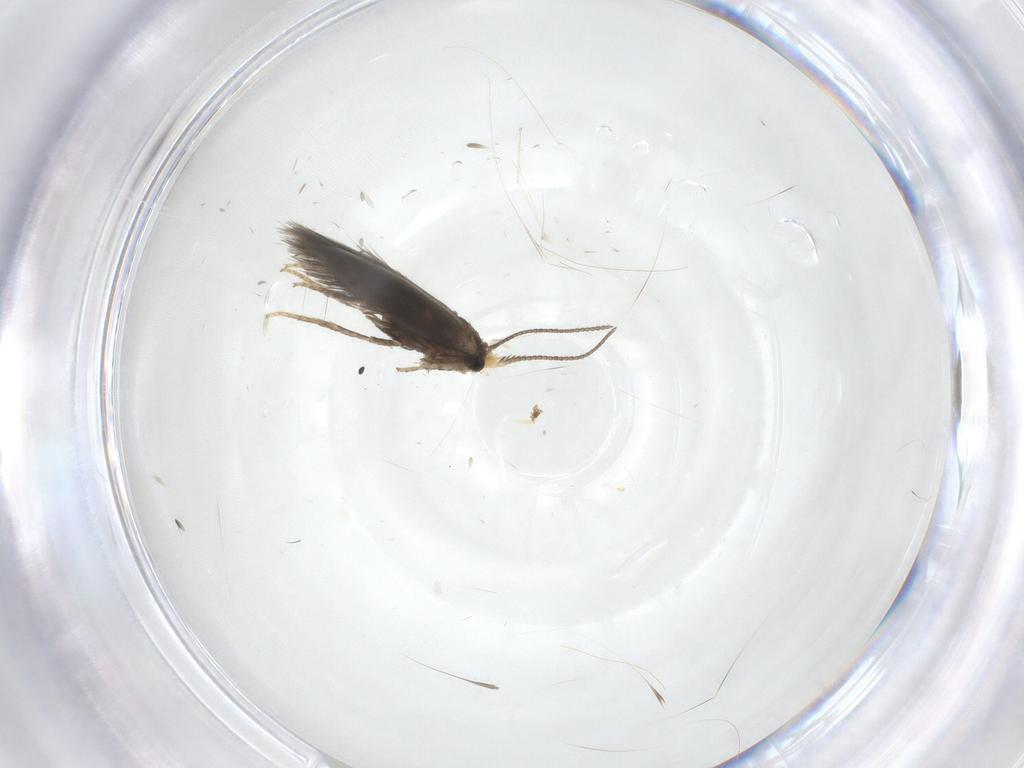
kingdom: Animalia
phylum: Arthropoda
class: Insecta
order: Lepidoptera
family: Nepticulidae
